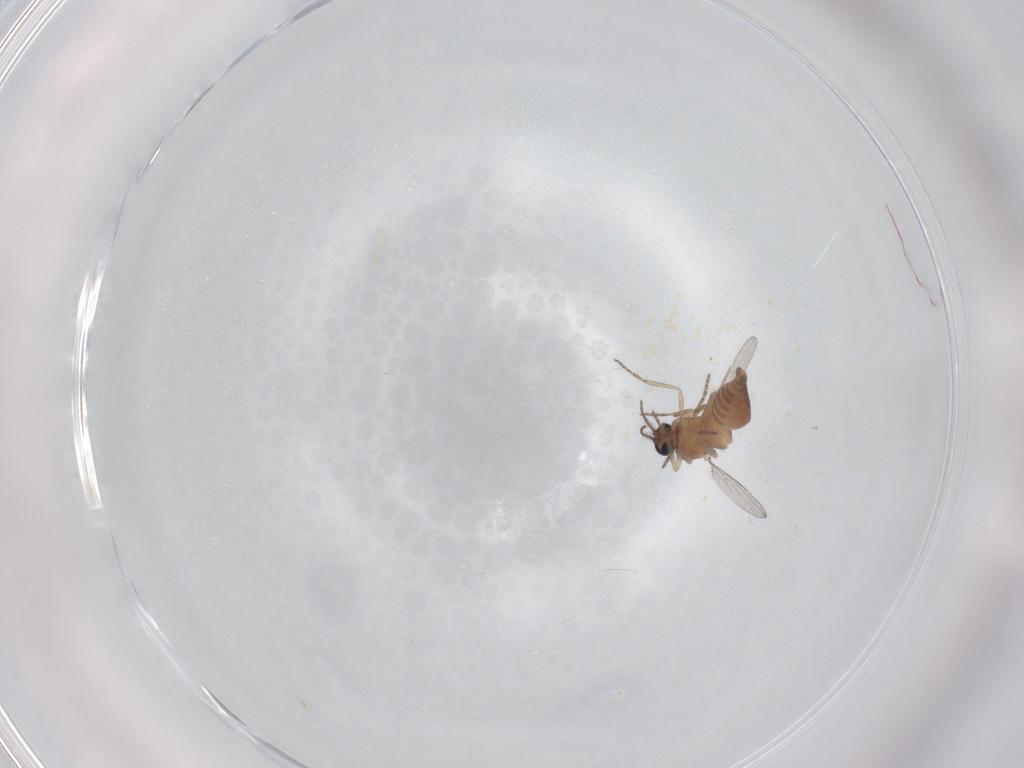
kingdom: Animalia
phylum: Arthropoda
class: Insecta
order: Diptera
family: Ceratopogonidae
